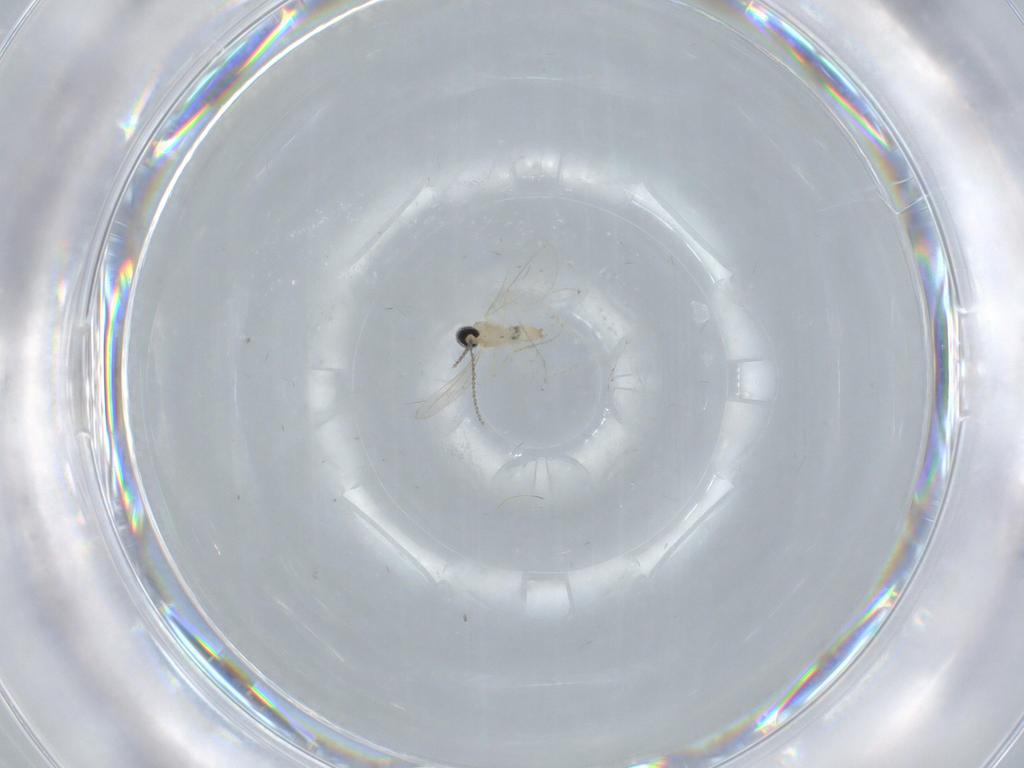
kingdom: Animalia
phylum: Arthropoda
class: Insecta
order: Diptera
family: Cecidomyiidae
